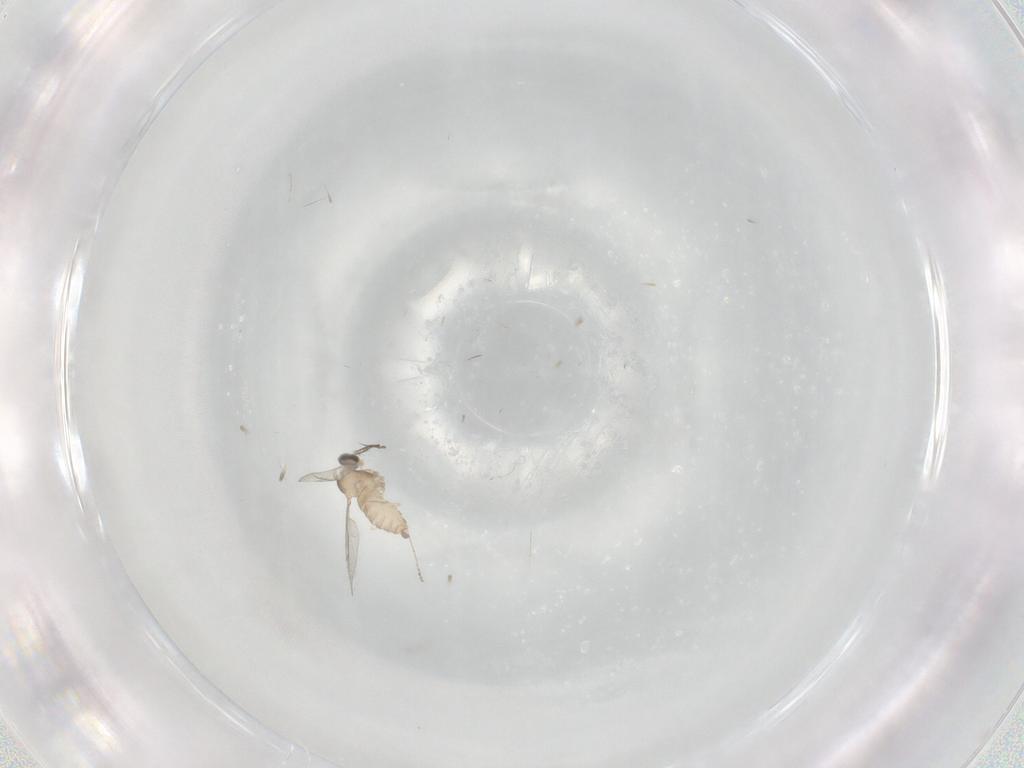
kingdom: Animalia
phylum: Arthropoda
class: Insecta
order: Diptera
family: Cecidomyiidae
